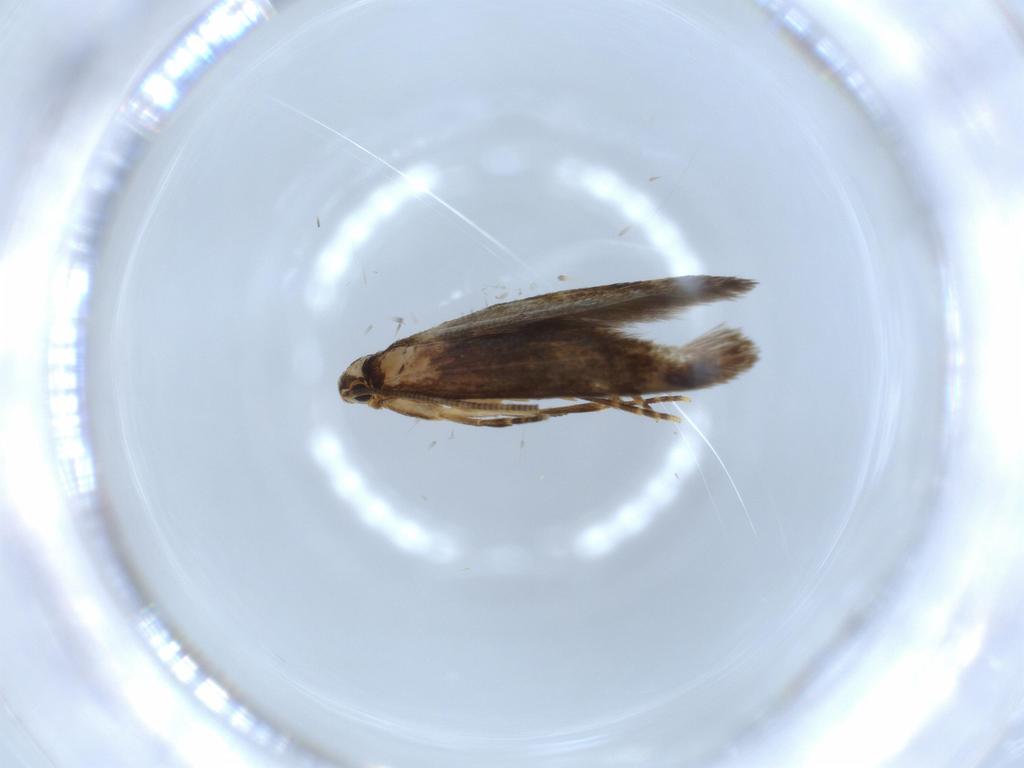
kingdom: Animalia
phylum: Arthropoda
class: Insecta
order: Lepidoptera
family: Tineidae
